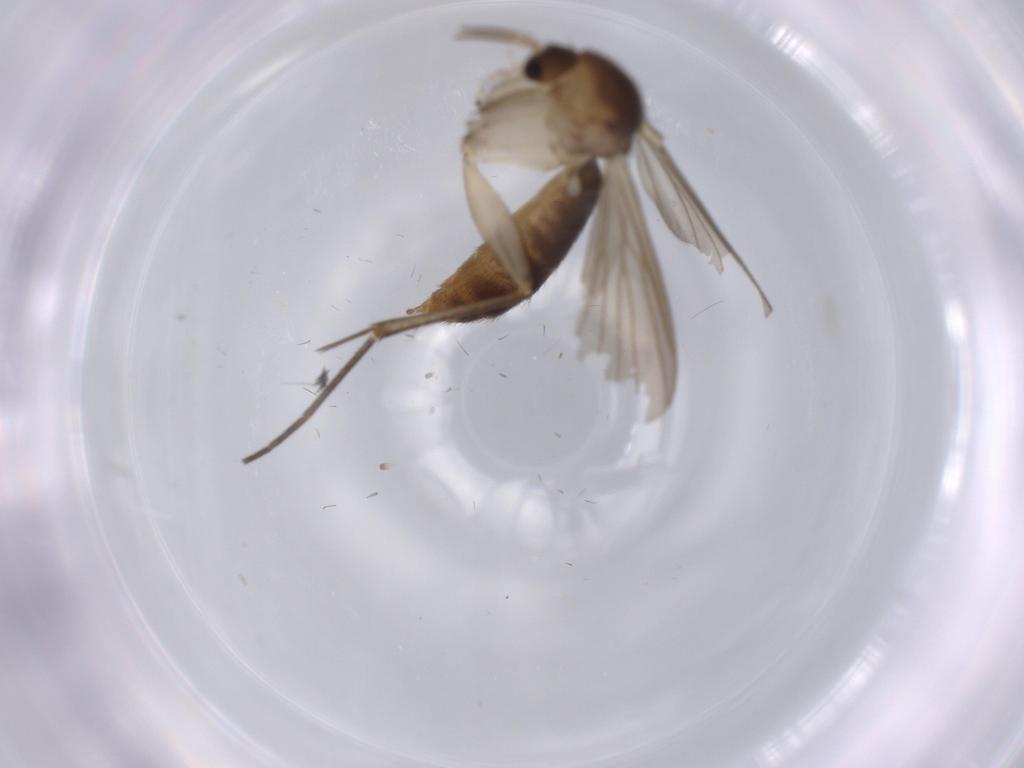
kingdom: Animalia
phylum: Arthropoda
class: Insecta
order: Diptera
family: Mycetophilidae
